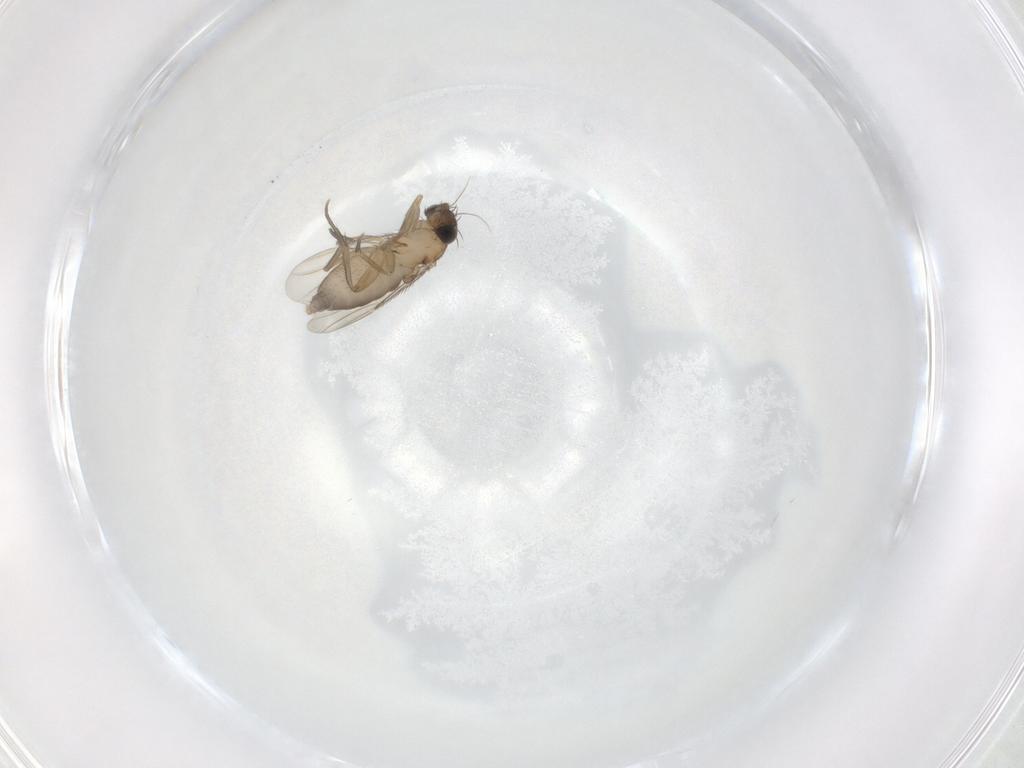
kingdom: Animalia
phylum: Arthropoda
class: Insecta
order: Diptera
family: Phoridae
